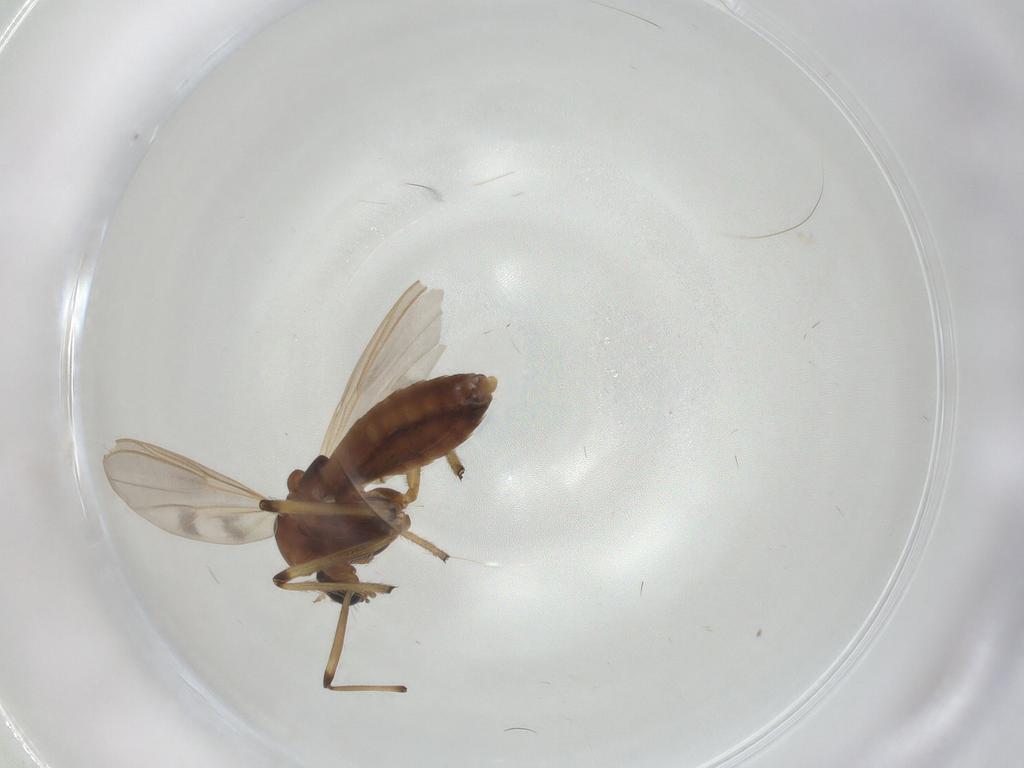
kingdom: Animalia
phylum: Arthropoda
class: Insecta
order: Diptera
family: Chironomidae
